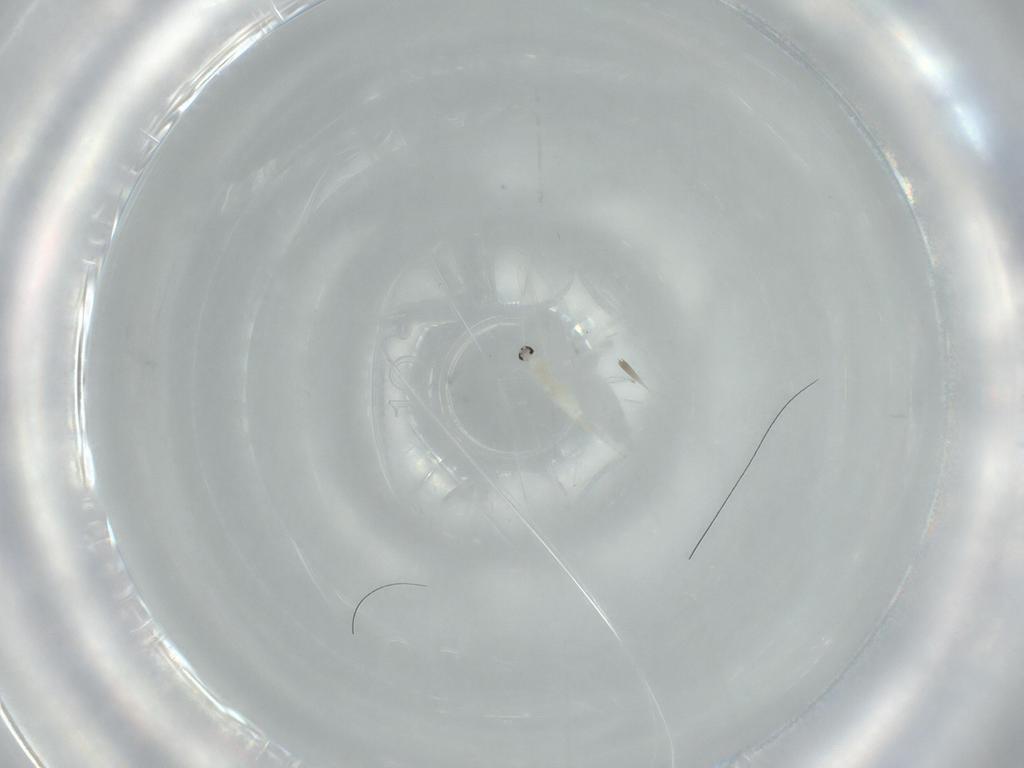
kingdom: Animalia
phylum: Arthropoda
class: Insecta
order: Diptera
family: Cecidomyiidae
